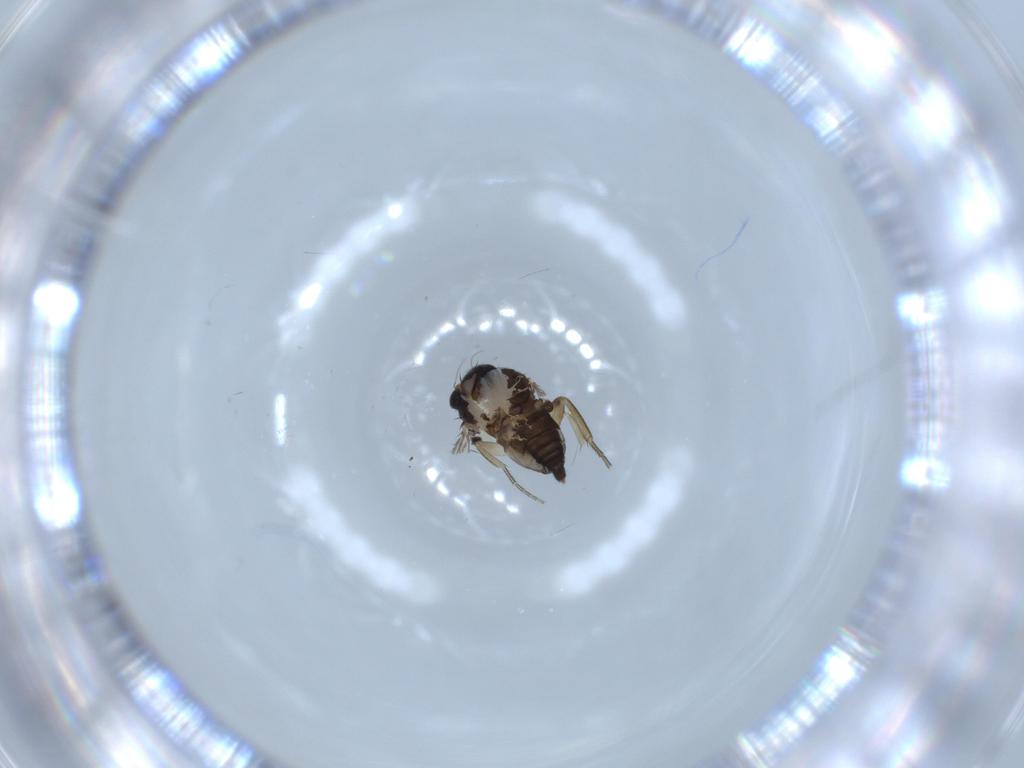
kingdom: Animalia
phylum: Arthropoda
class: Insecta
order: Diptera
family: Phoridae
